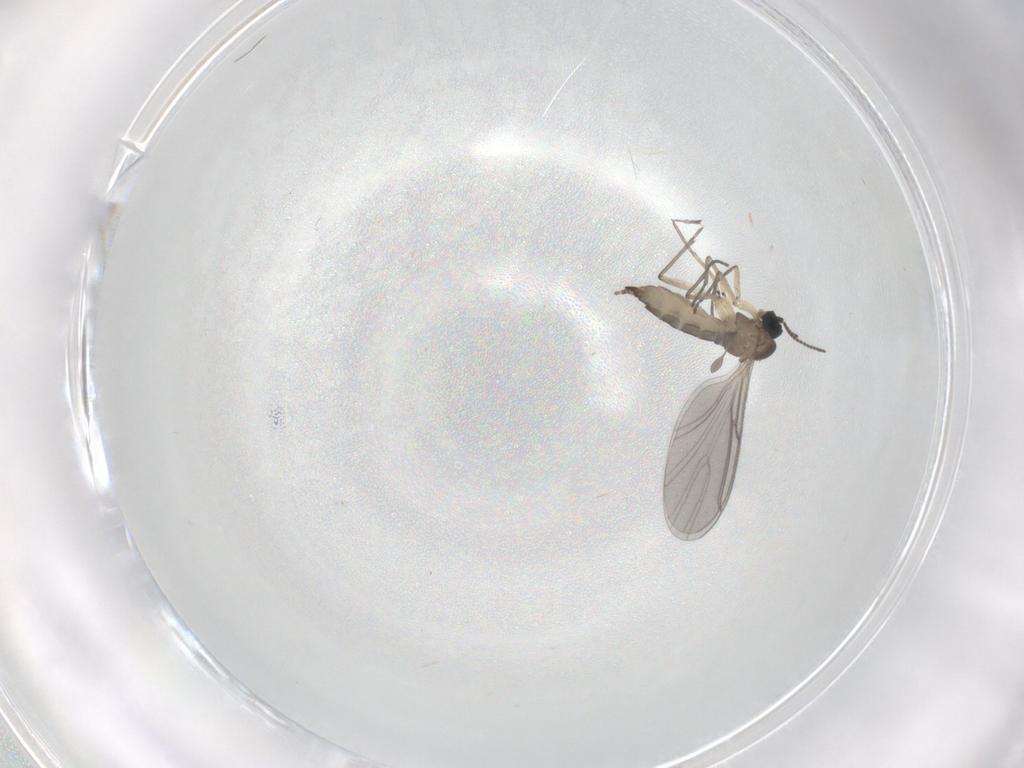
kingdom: Animalia
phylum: Arthropoda
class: Insecta
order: Diptera
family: Sciaridae
